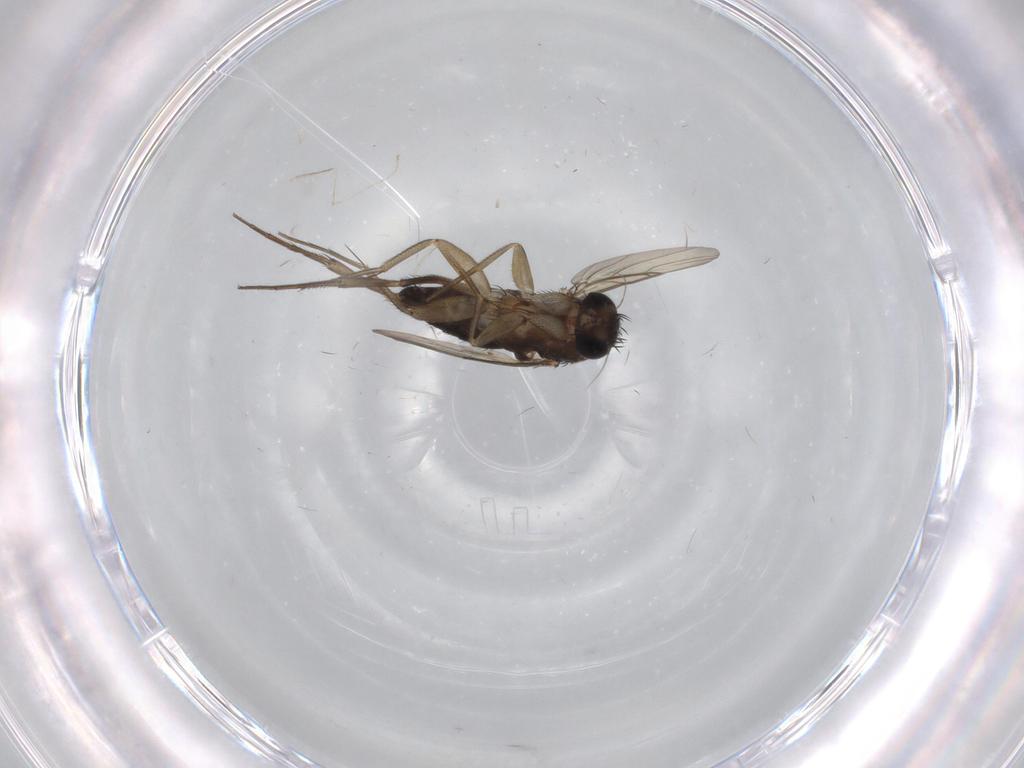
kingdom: Animalia
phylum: Arthropoda
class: Insecta
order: Diptera
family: Phoridae
